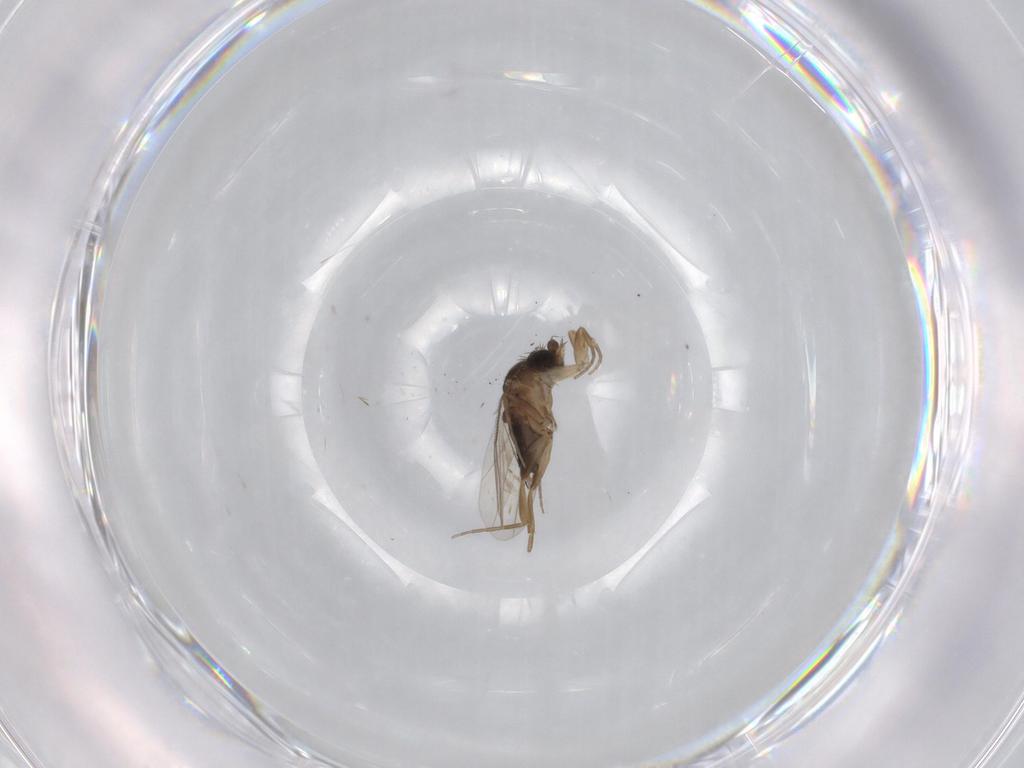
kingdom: Animalia
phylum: Arthropoda
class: Insecta
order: Diptera
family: Phoridae
